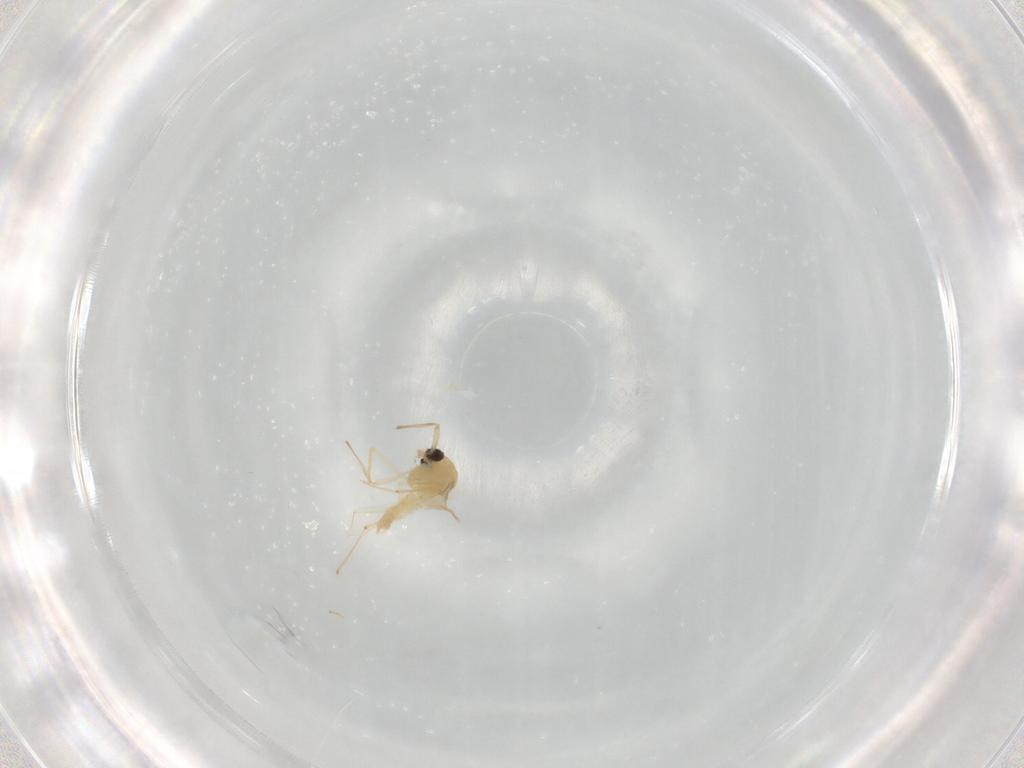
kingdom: Animalia
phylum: Arthropoda
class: Insecta
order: Diptera
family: Chironomidae
